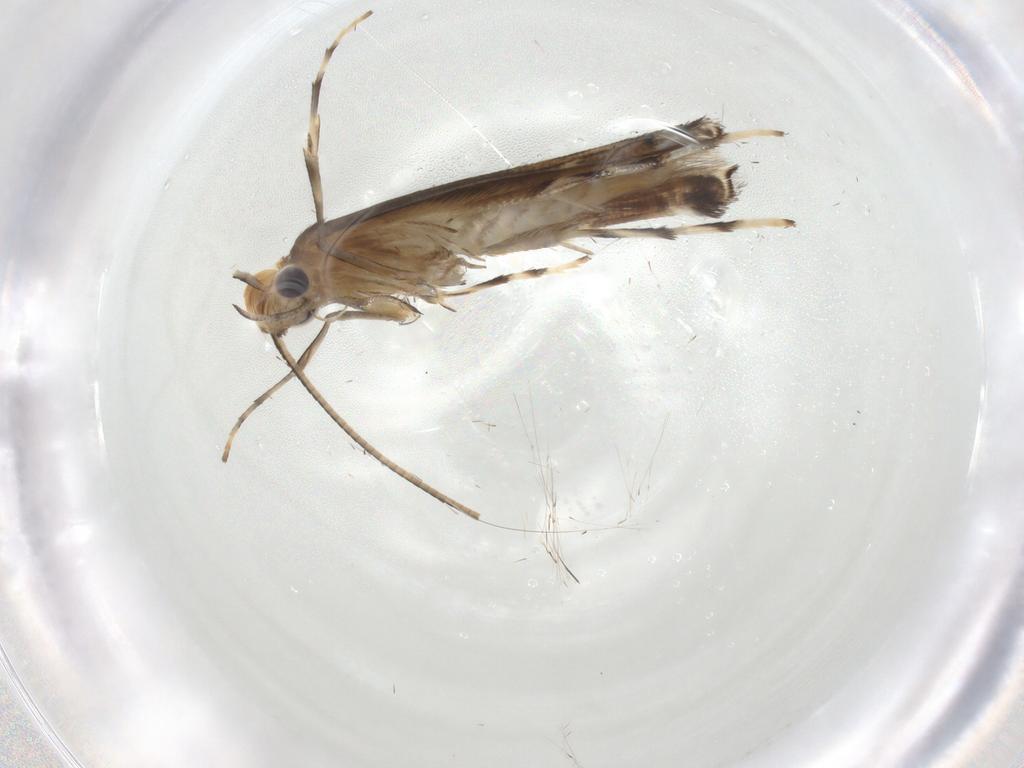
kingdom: Animalia
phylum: Arthropoda
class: Insecta
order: Lepidoptera
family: Gracillariidae
